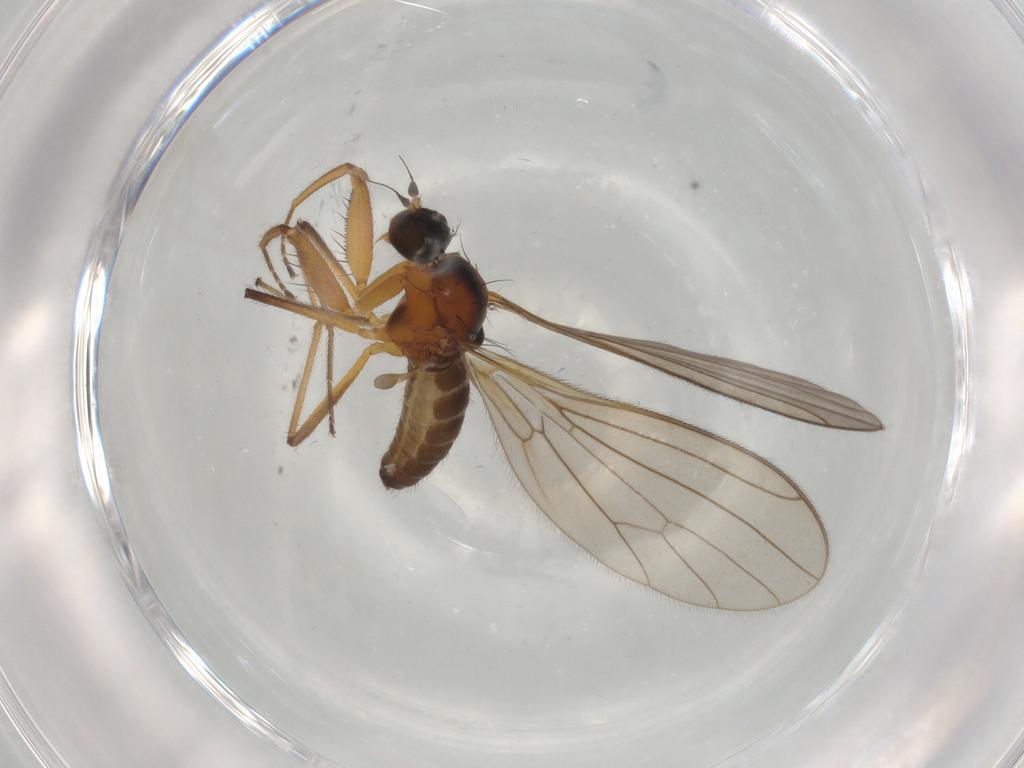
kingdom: Animalia
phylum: Arthropoda
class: Insecta
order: Diptera
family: Empididae
